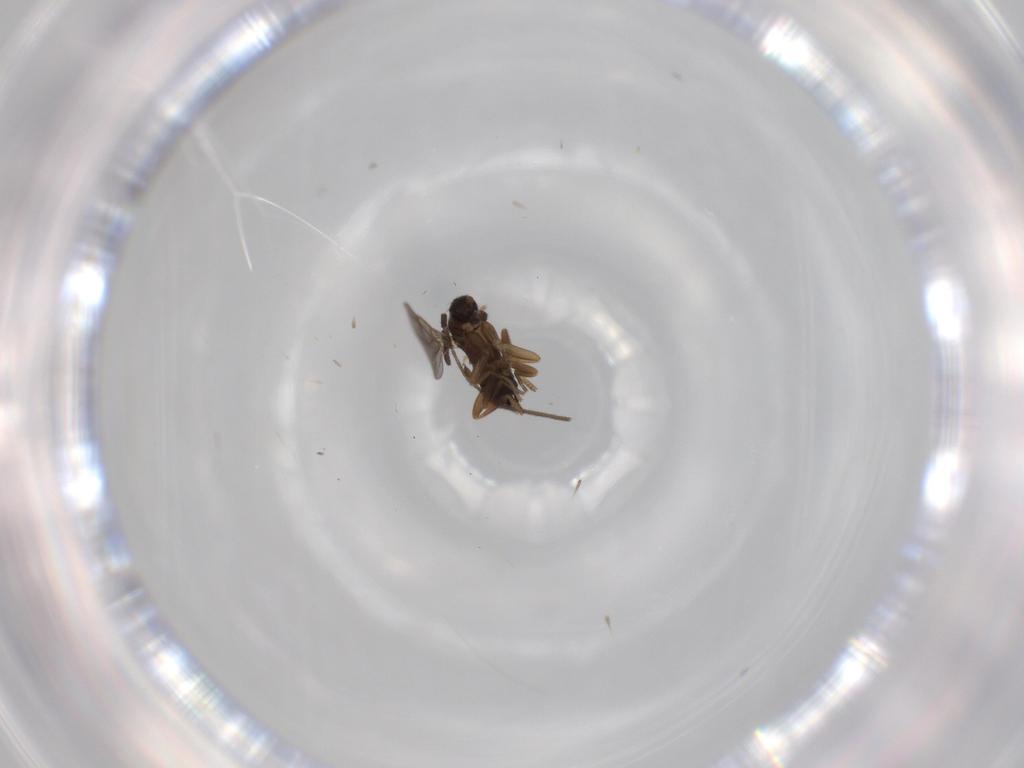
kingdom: Animalia
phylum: Arthropoda
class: Insecta
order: Diptera
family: Phoridae
